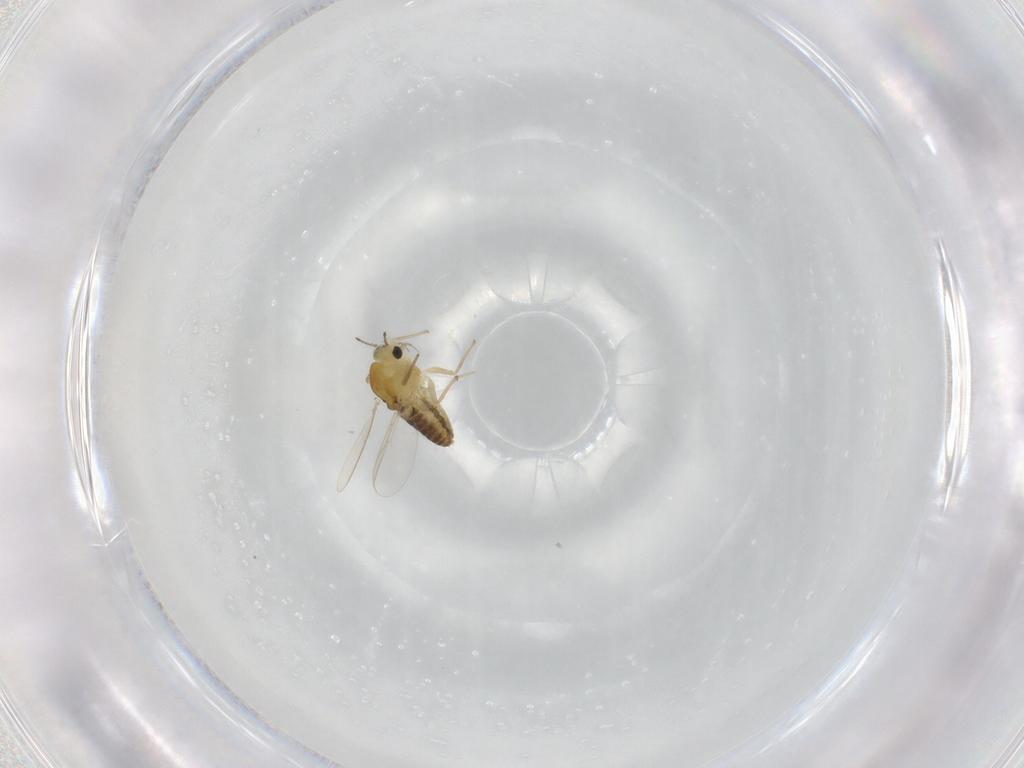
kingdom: Animalia
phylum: Arthropoda
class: Insecta
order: Diptera
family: Chironomidae
